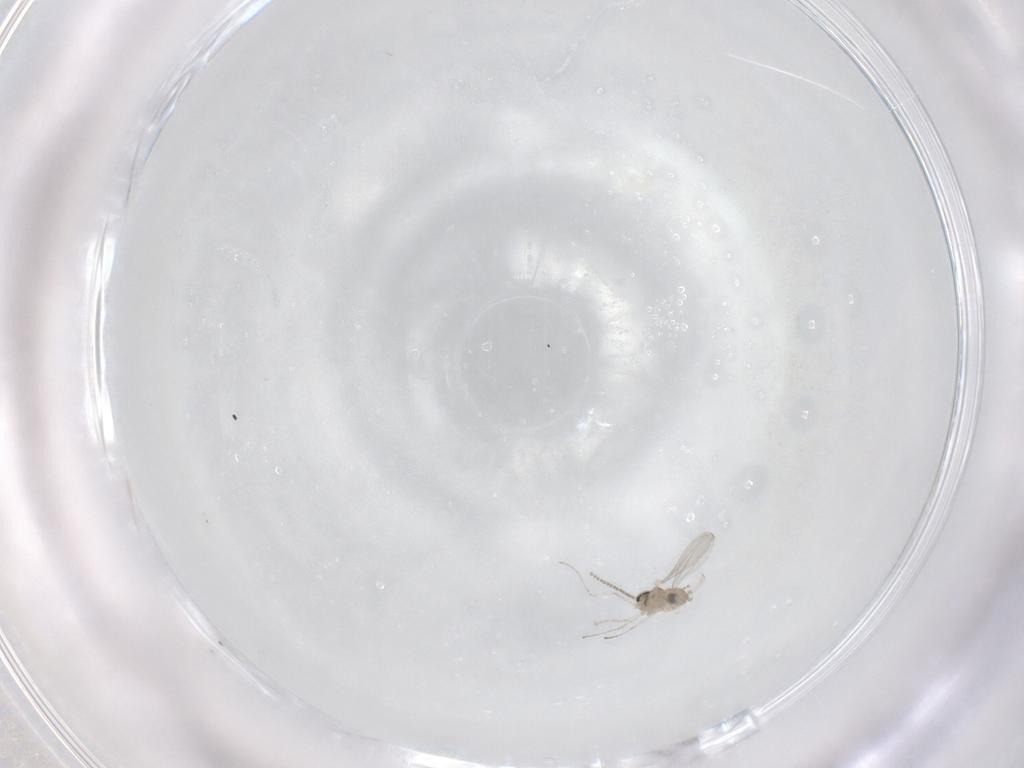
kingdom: Animalia
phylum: Arthropoda
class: Insecta
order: Diptera
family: Cecidomyiidae
